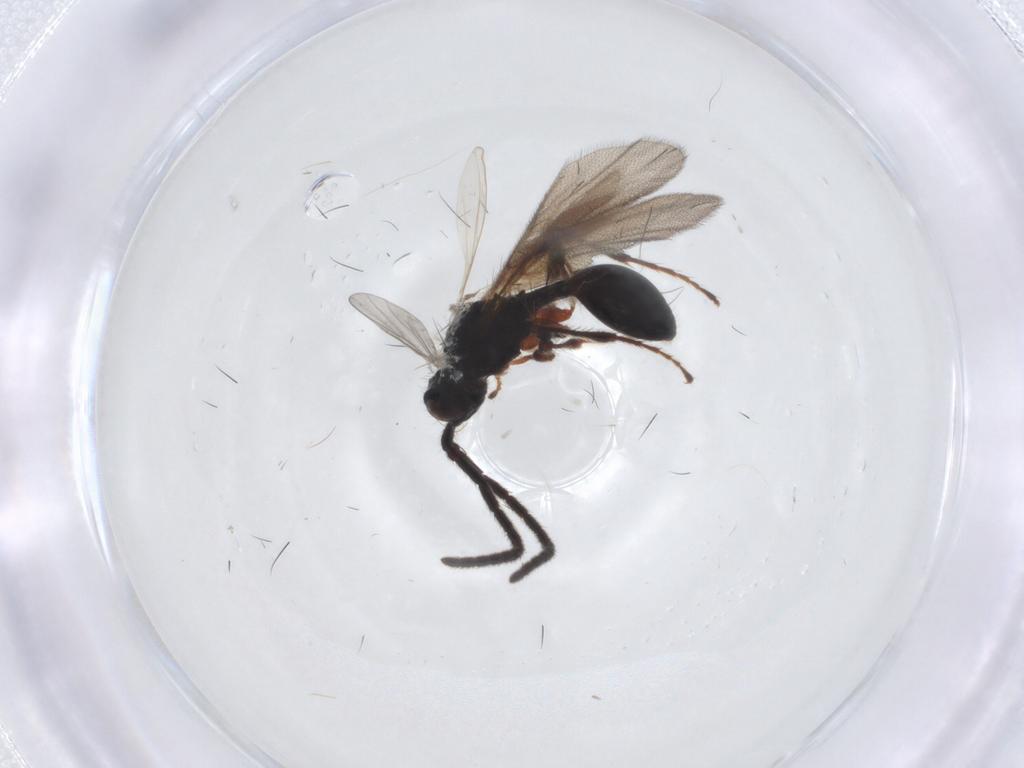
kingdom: Animalia
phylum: Arthropoda
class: Insecta
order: Hymenoptera
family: Diapriidae
